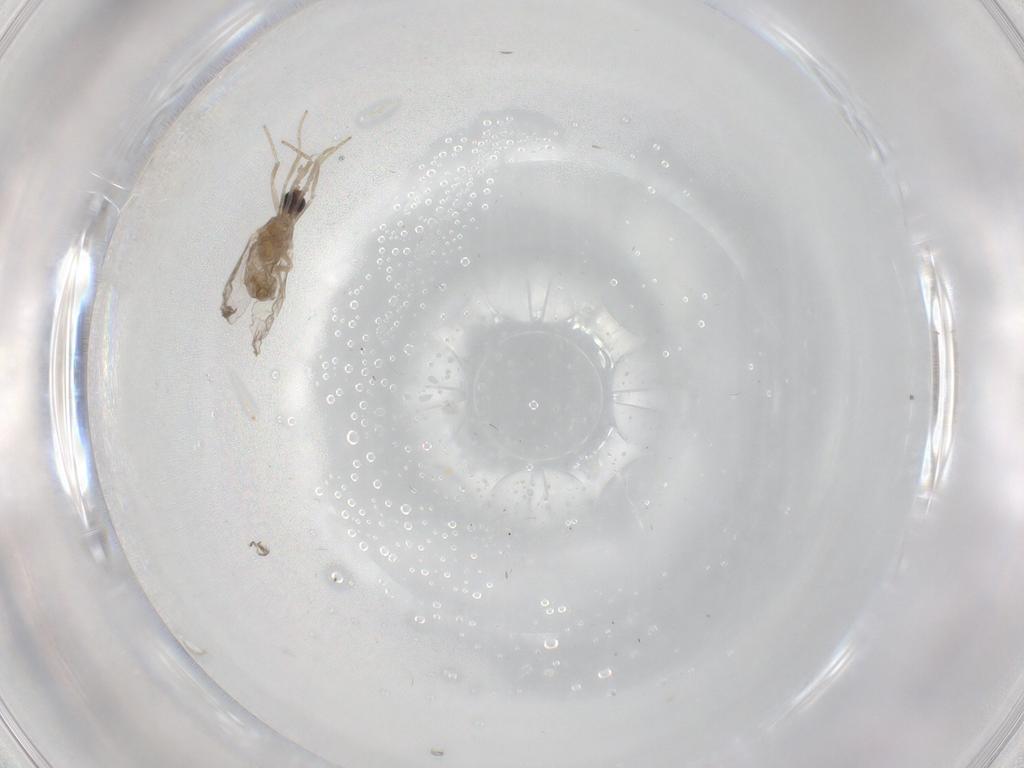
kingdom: Animalia
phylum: Arthropoda
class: Insecta
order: Diptera
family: Cecidomyiidae
